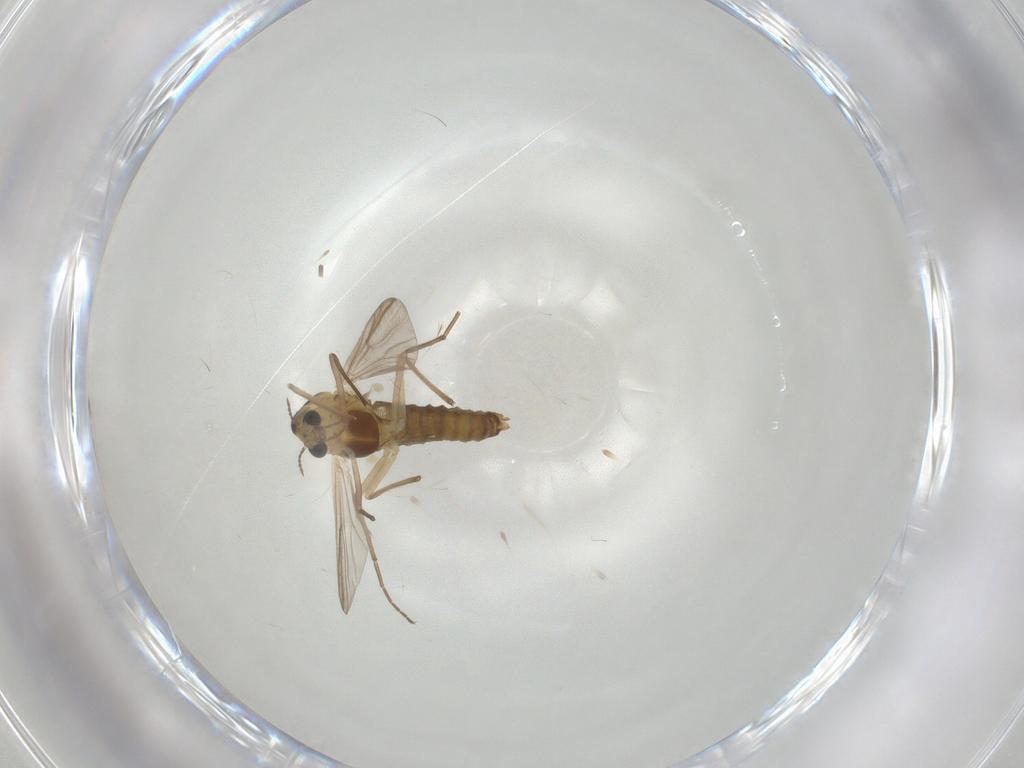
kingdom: Animalia
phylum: Arthropoda
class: Insecta
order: Diptera
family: Chironomidae
